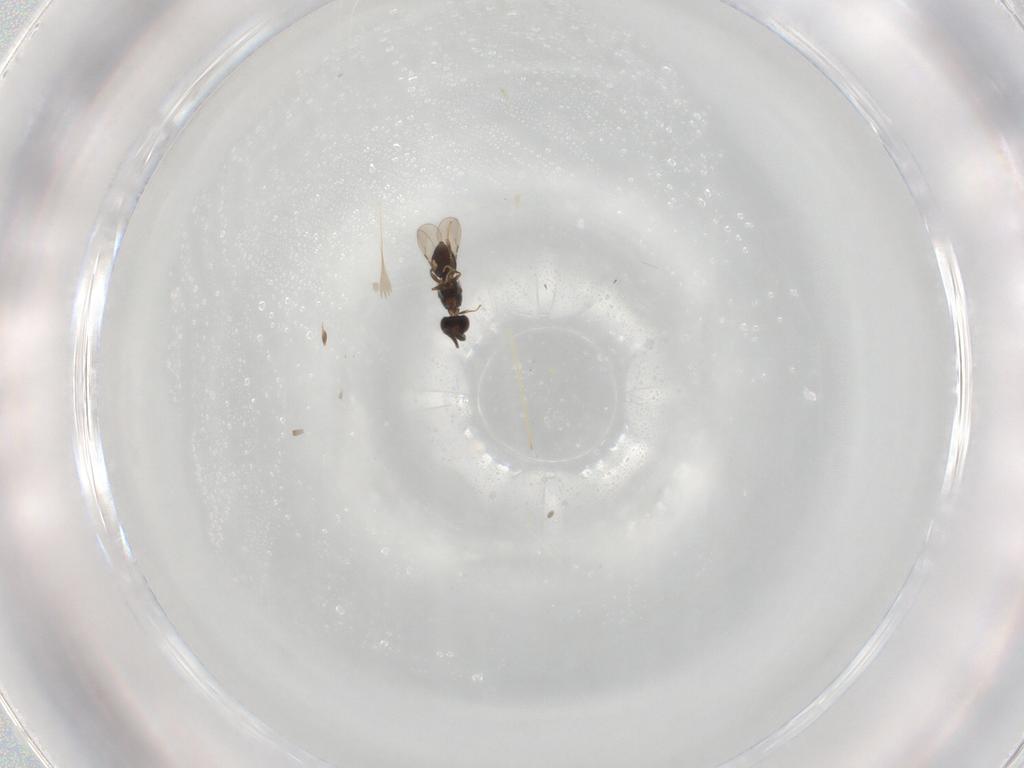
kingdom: Animalia
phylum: Arthropoda
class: Insecta
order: Hymenoptera
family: Ceraphronidae
